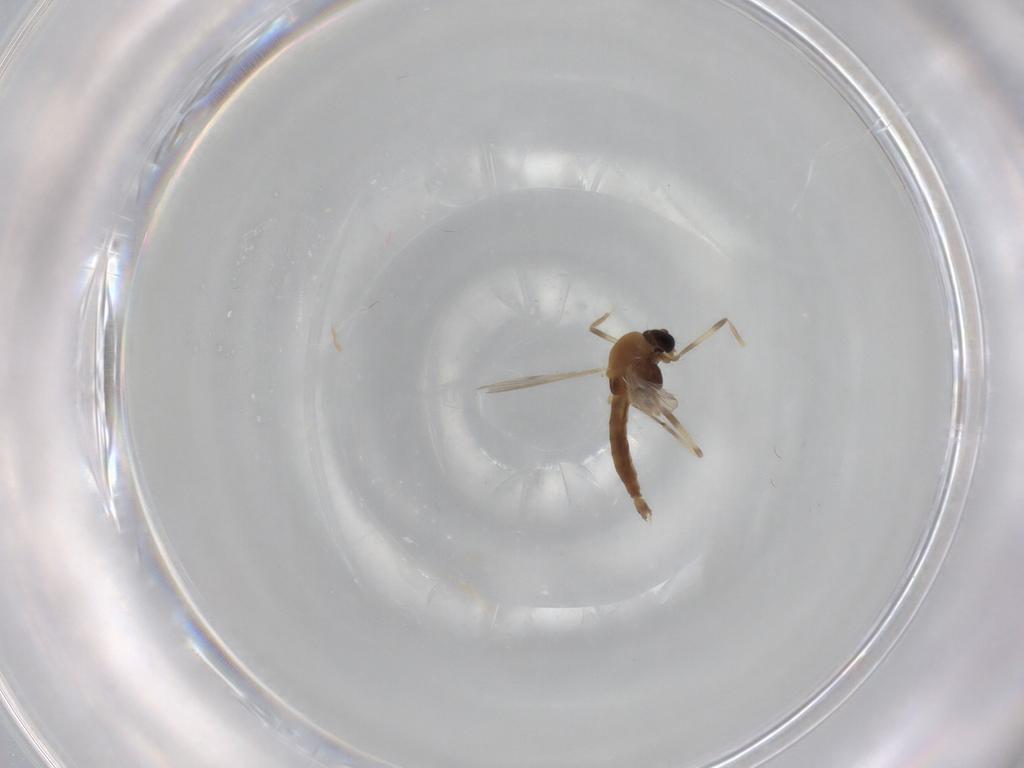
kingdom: Animalia
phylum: Arthropoda
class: Insecta
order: Diptera
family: Chironomidae
